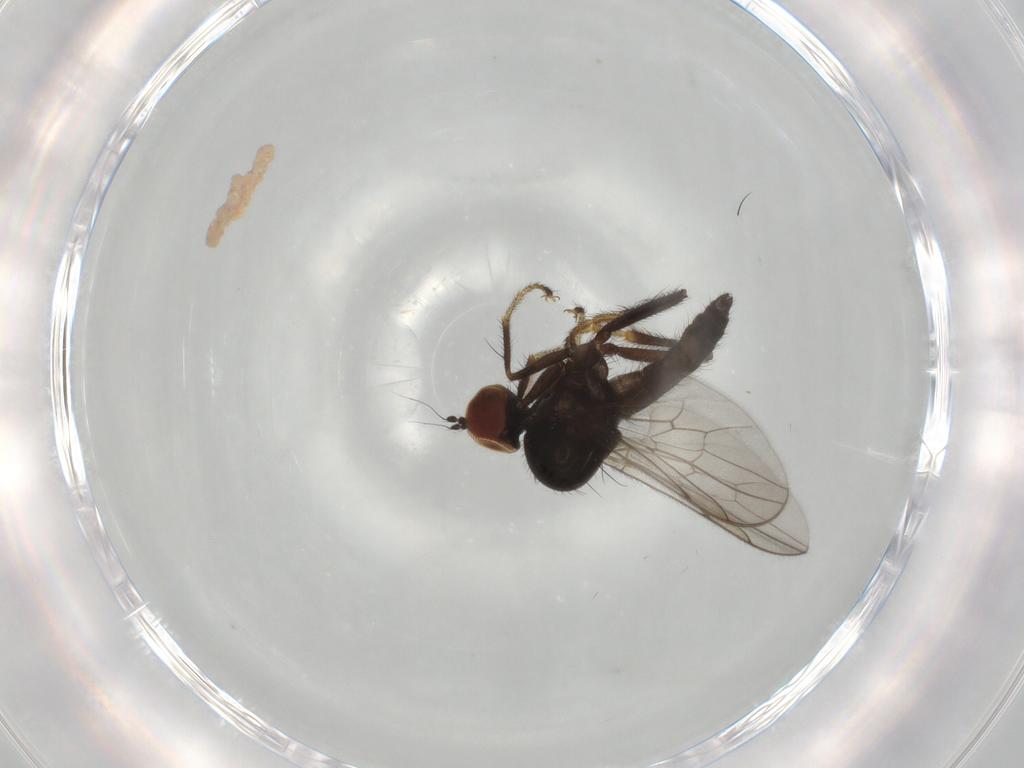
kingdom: Animalia
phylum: Arthropoda
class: Insecta
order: Diptera
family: Hybotidae
